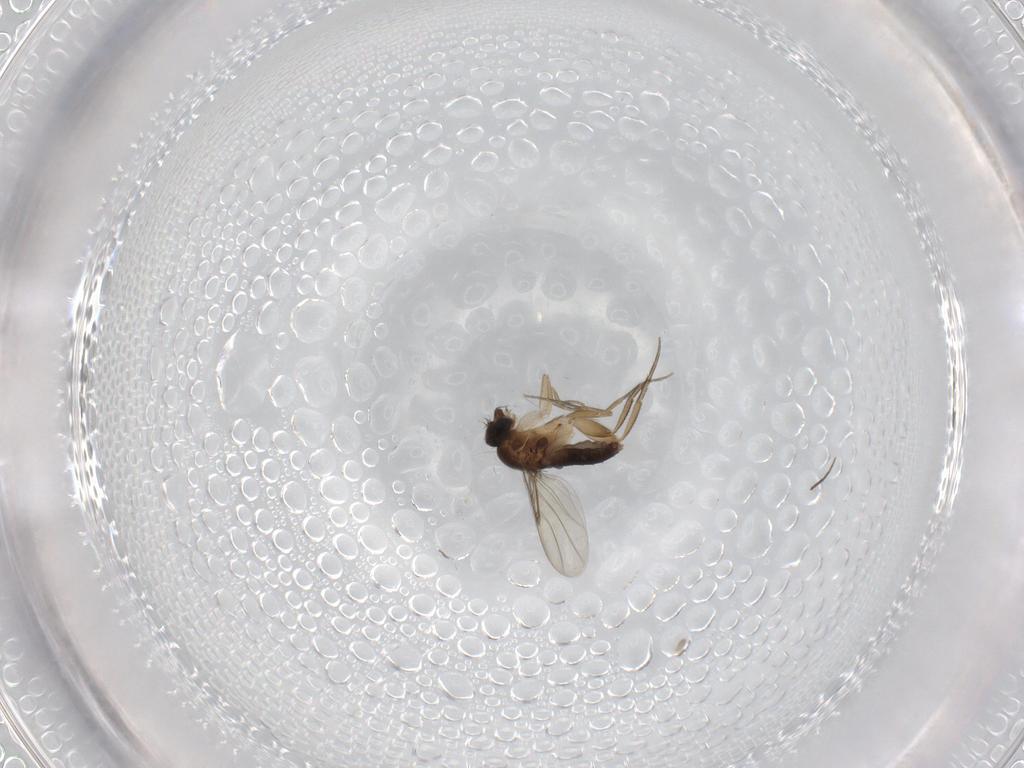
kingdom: Animalia
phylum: Arthropoda
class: Insecta
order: Diptera
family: Phoridae
